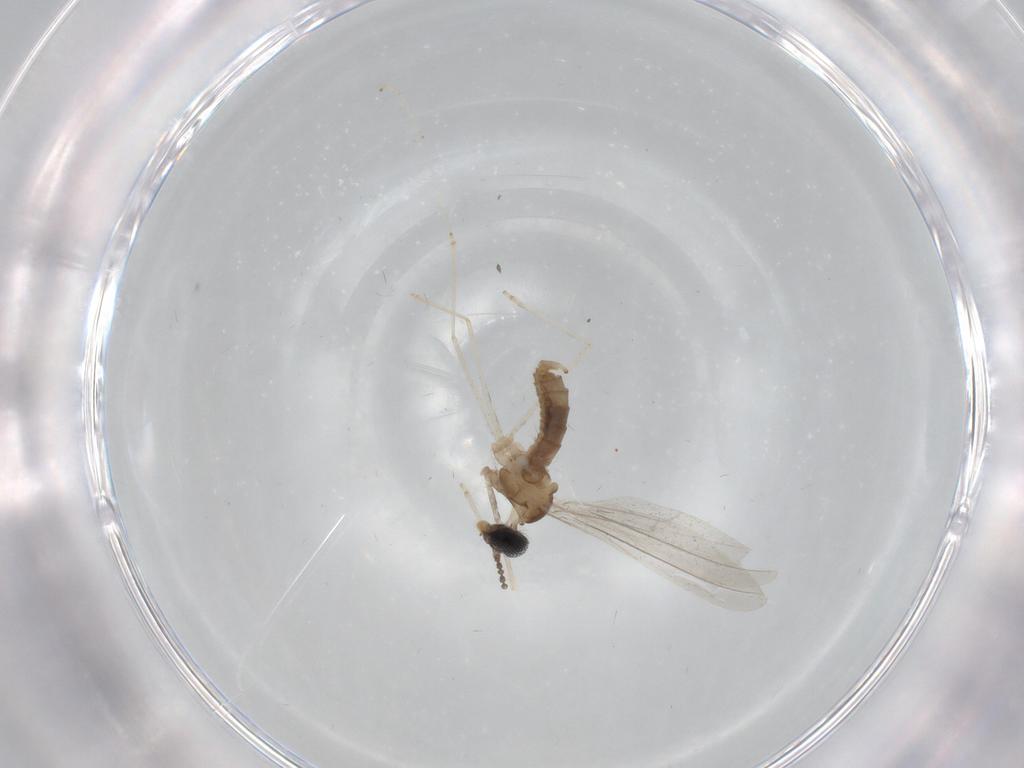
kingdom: Animalia
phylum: Arthropoda
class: Insecta
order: Diptera
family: Cecidomyiidae
